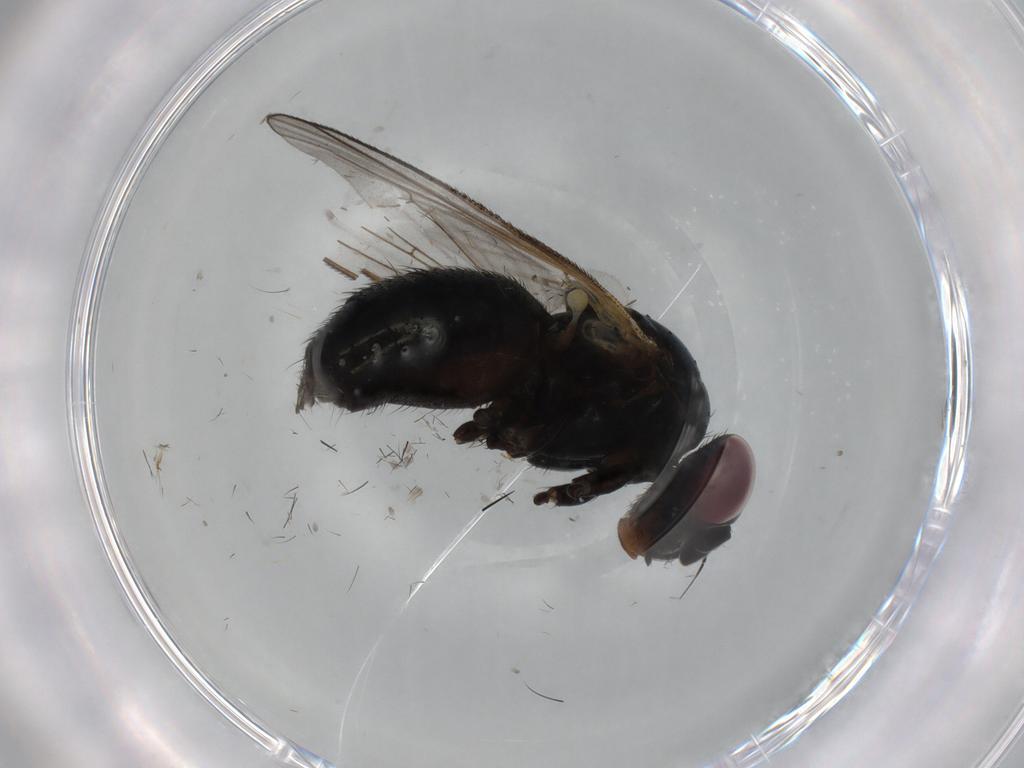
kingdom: Animalia
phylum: Arthropoda
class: Insecta
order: Diptera
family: Fannia
